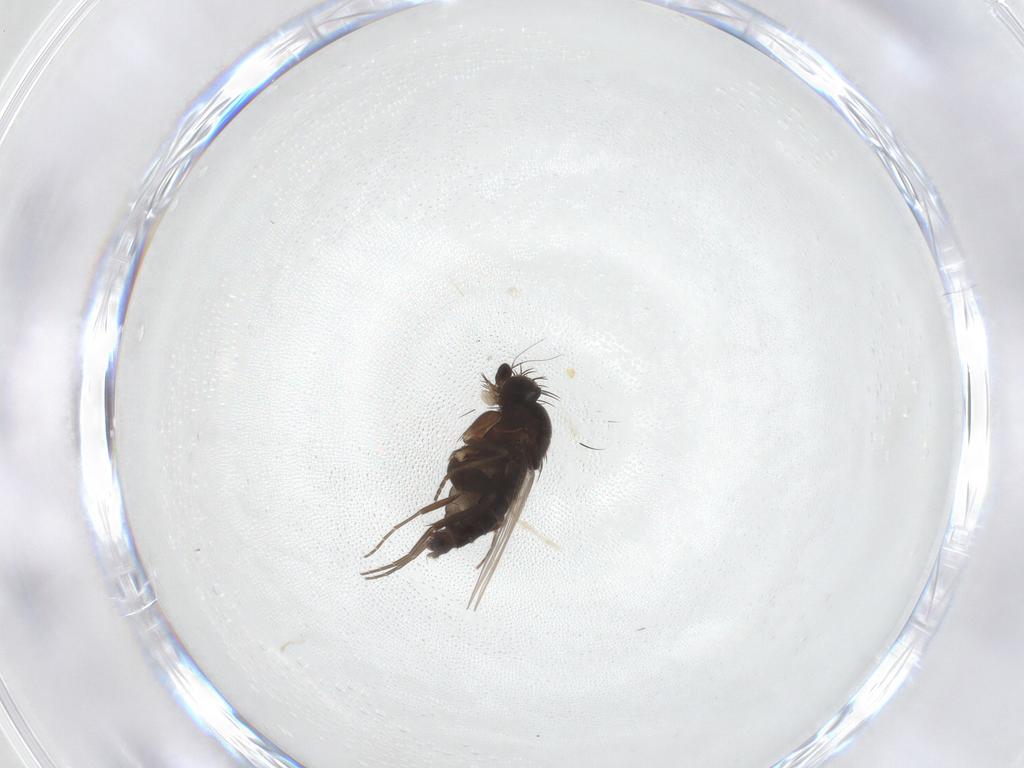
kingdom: Animalia
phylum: Arthropoda
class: Insecta
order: Diptera
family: Phoridae
